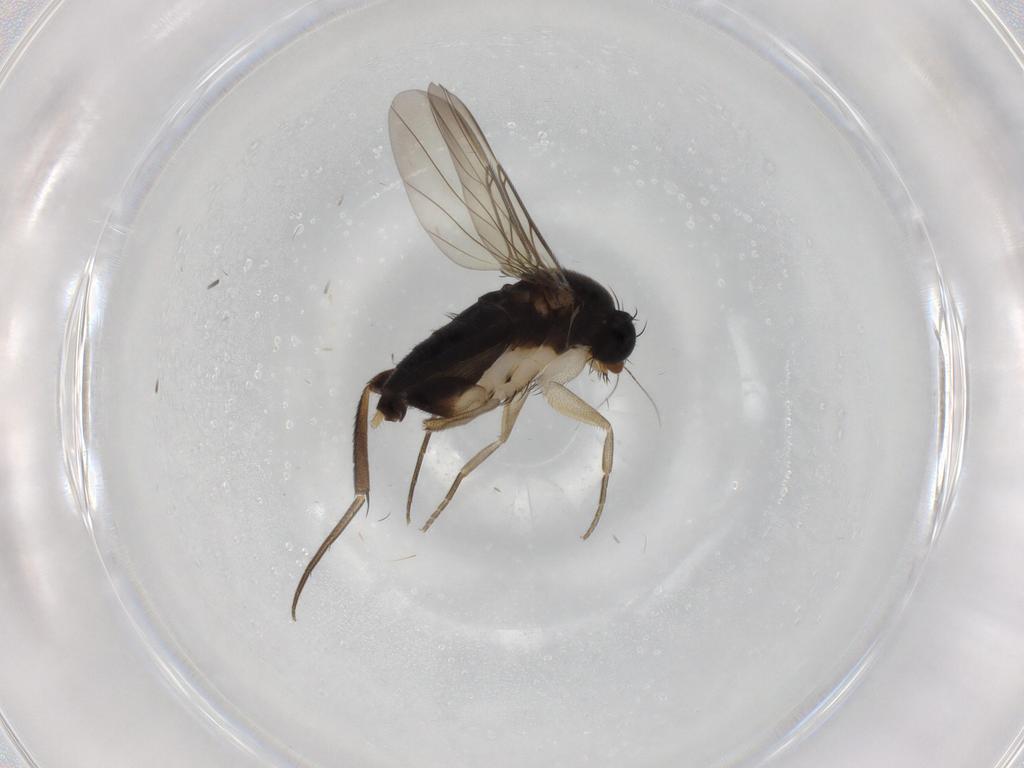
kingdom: Animalia
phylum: Arthropoda
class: Insecta
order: Diptera
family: Phoridae
